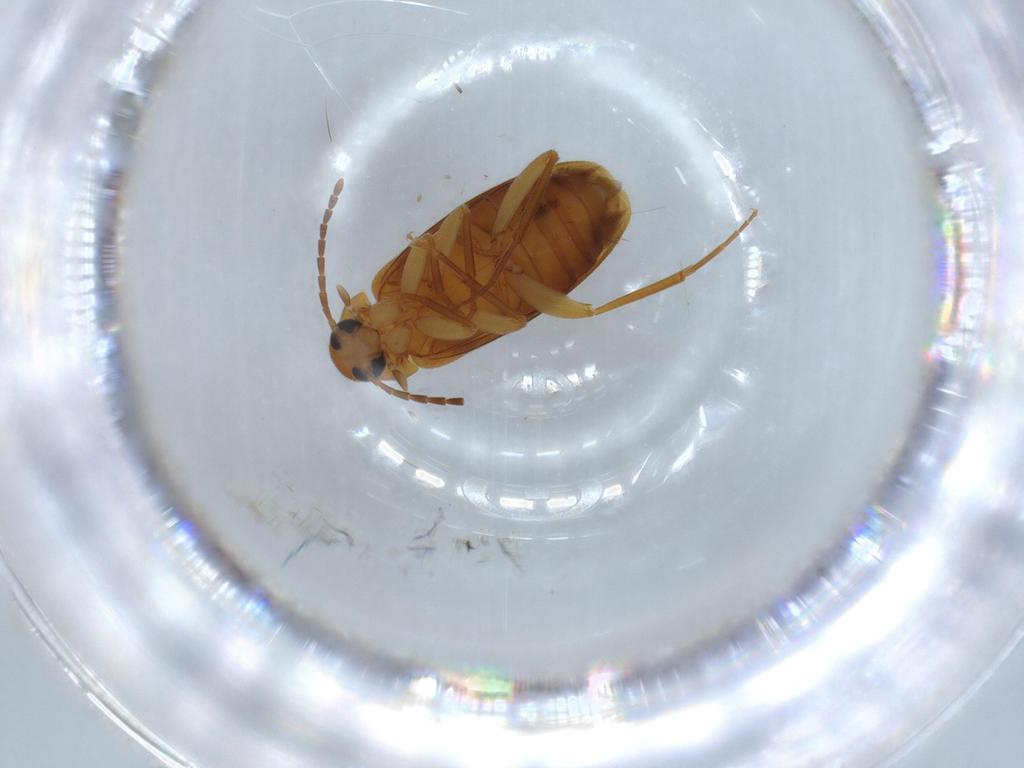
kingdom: Animalia
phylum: Arthropoda
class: Insecta
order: Coleoptera
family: Scraptiidae
